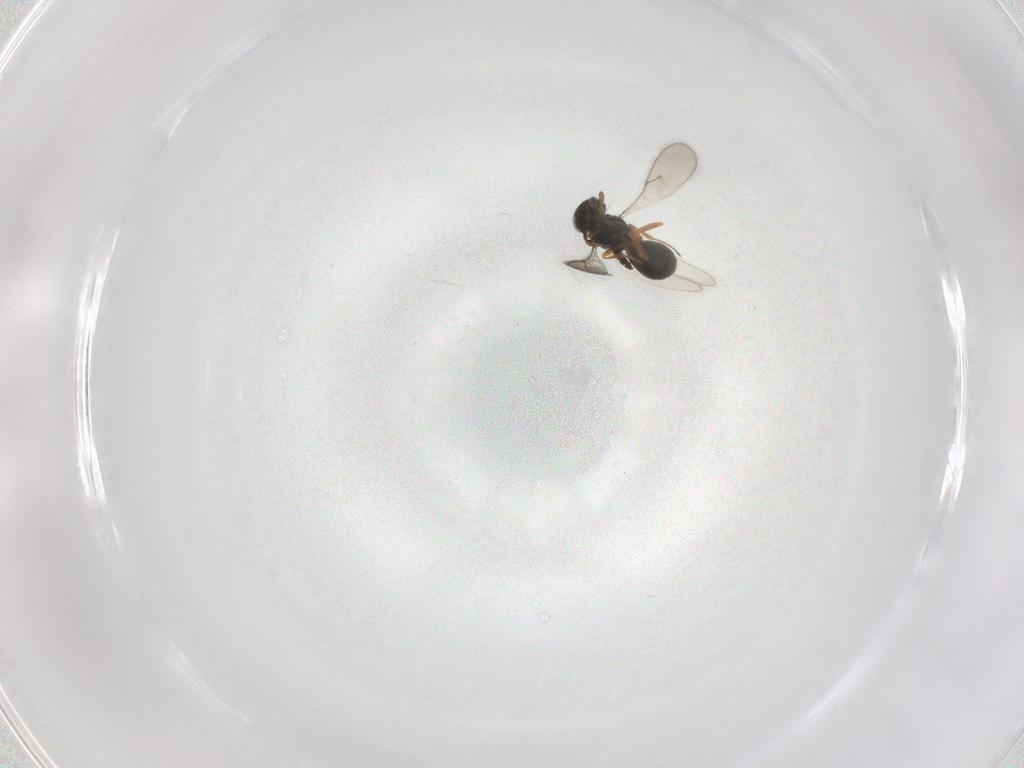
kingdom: Animalia
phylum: Arthropoda
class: Insecta
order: Hymenoptera
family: Scelionidae
